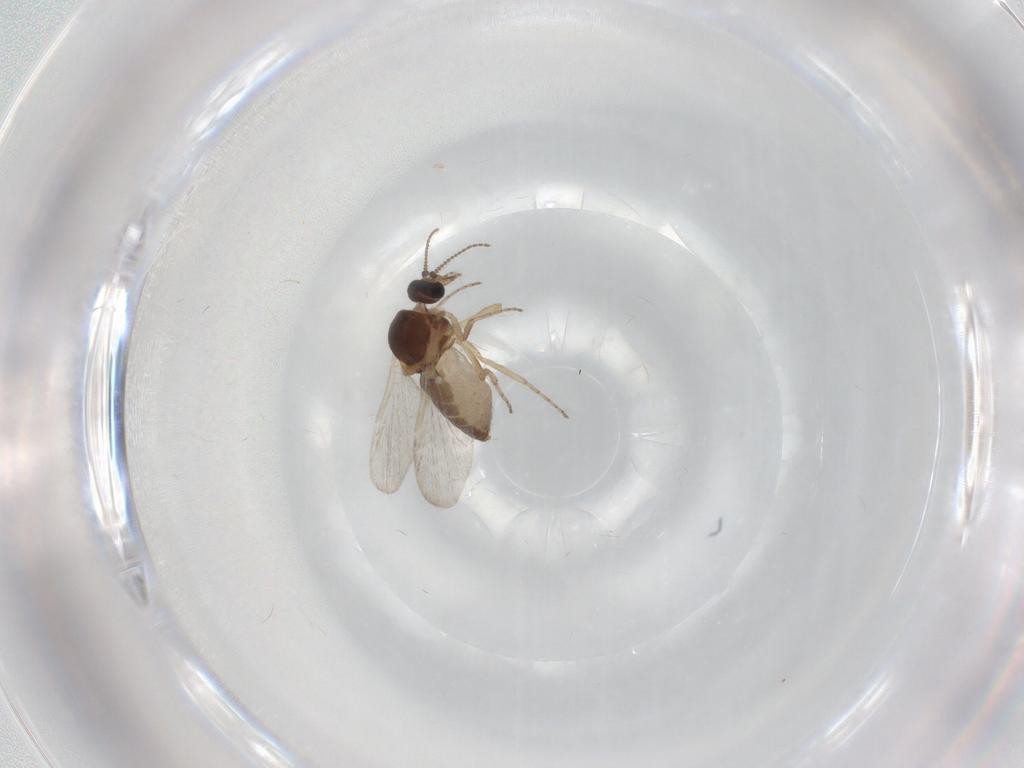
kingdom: Animalia
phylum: Arthropoda
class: Insecta
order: Diptera
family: Ceratopogonidae
